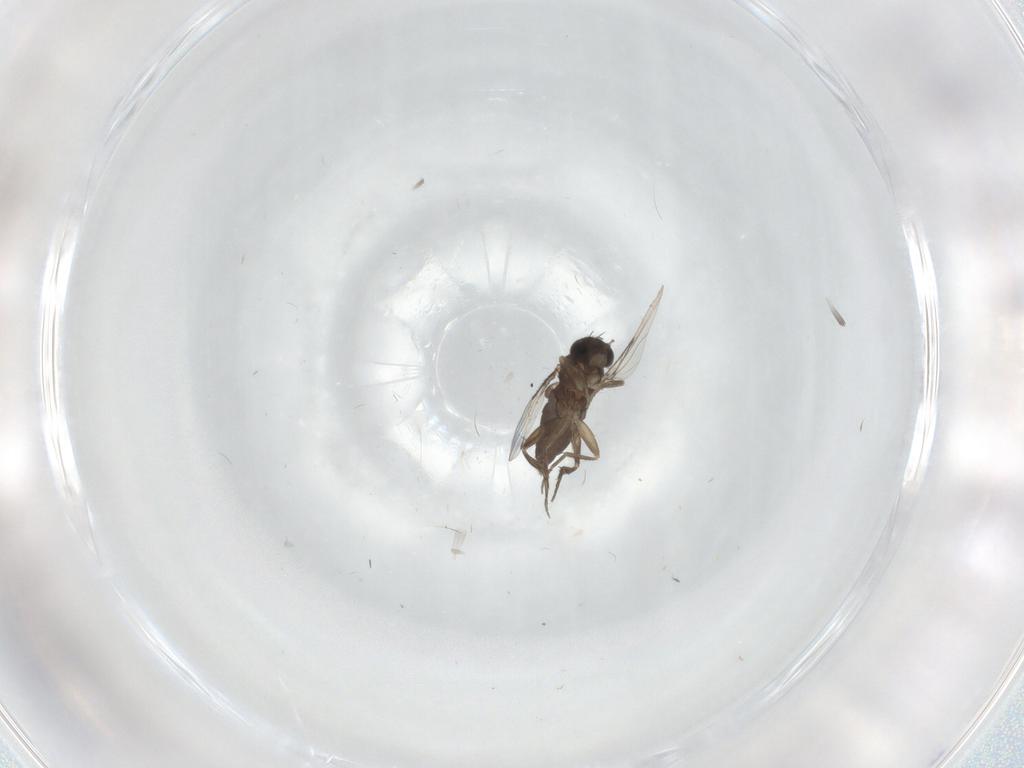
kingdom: Animalia
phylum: Arthropoda
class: Insecta
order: Diptera
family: Phoridae
